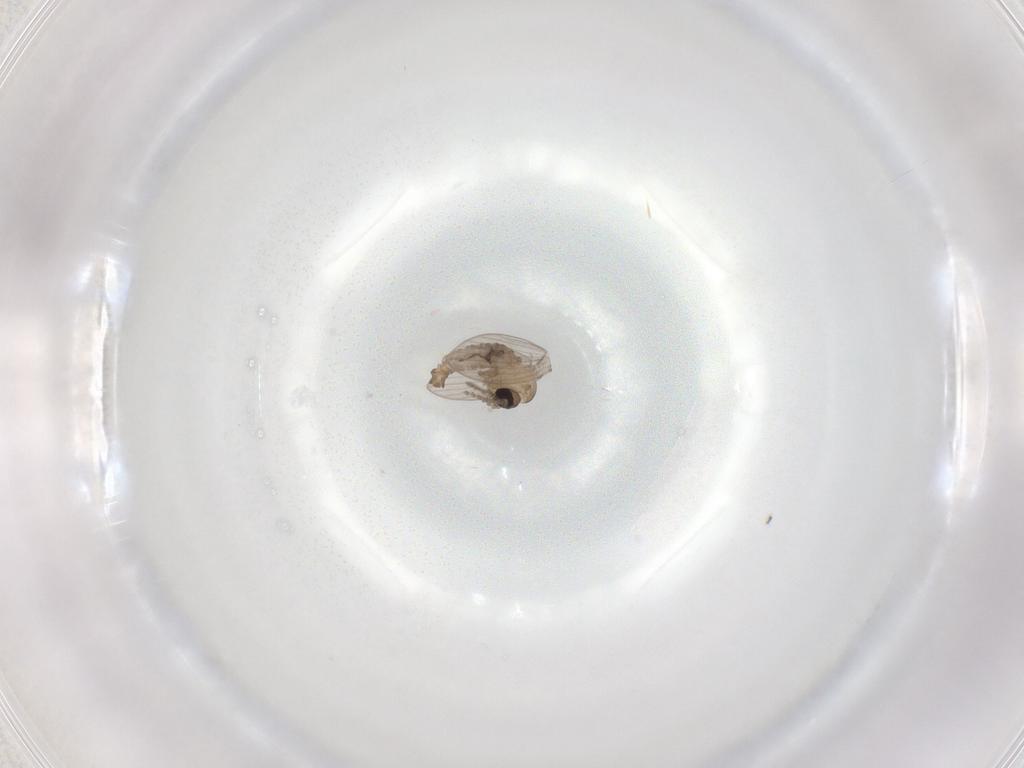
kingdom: Animalia
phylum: Arthropoda
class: Insecta
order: Diptera
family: Psychodidae
